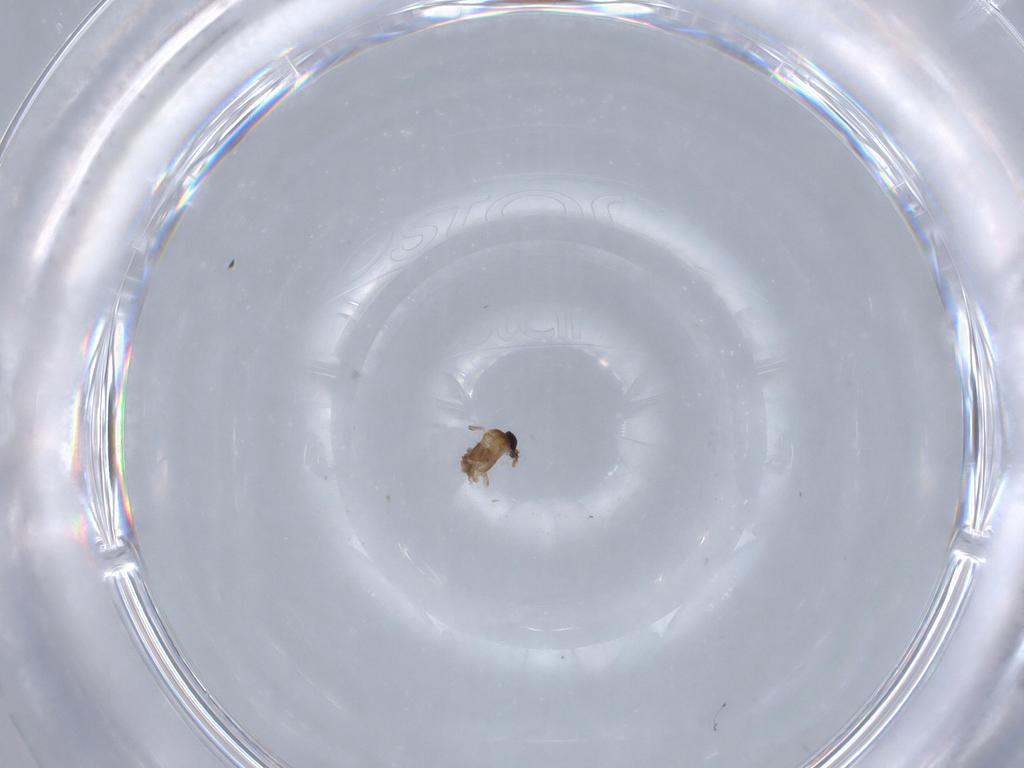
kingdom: Animalia
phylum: Arthropoda
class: Insecta
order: Diptera
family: Cecidomyiidae
